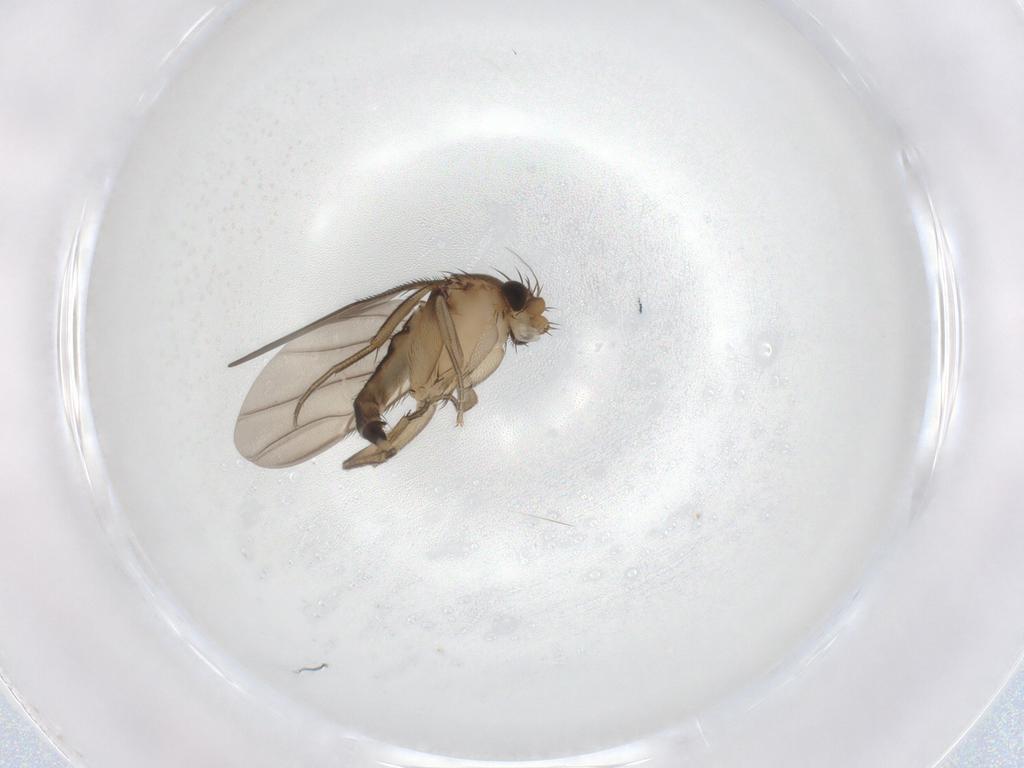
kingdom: Animalia
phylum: Arthropoda
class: Insecta
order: Diptera
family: Phoridae
